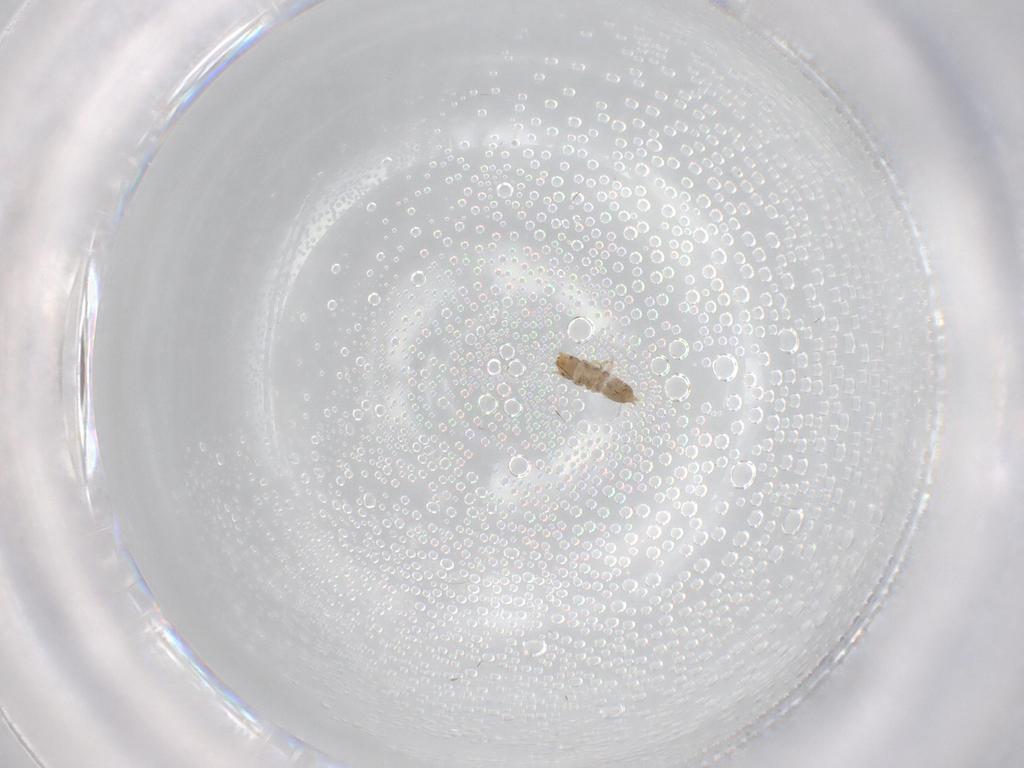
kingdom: Animalia
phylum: Arthropoda
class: Insecta
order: Coleoptera
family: Mycetophagidae
